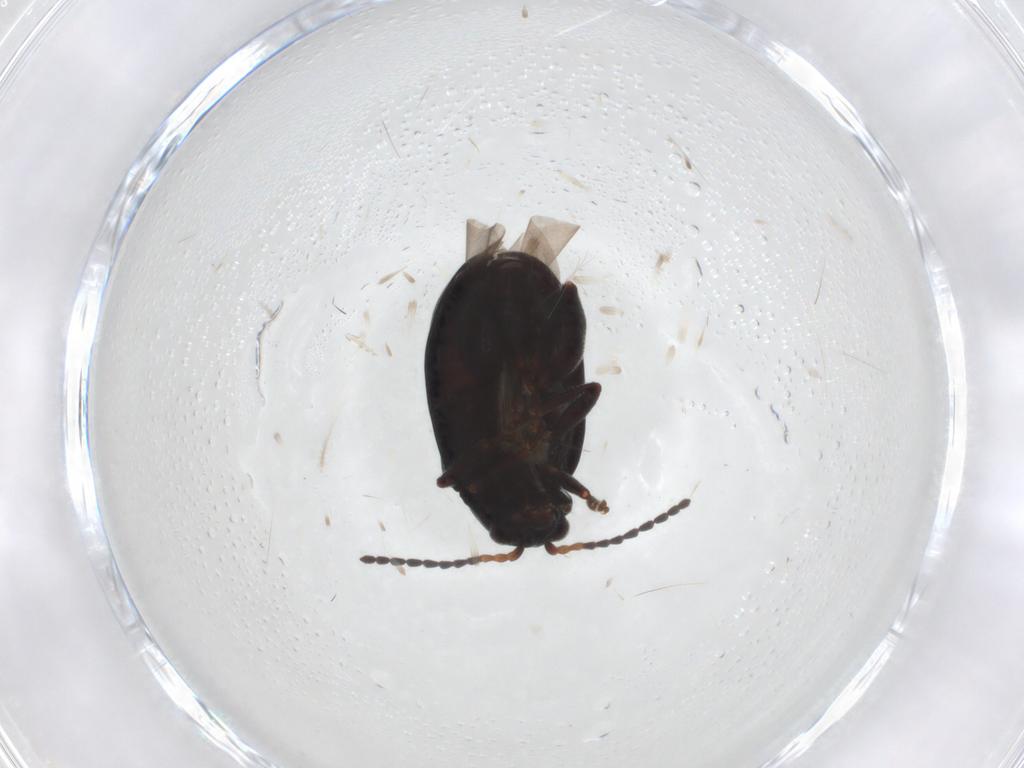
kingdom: Animalia
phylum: Arthropoda
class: Insecta
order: Coleoptera
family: Chrysomelidae
